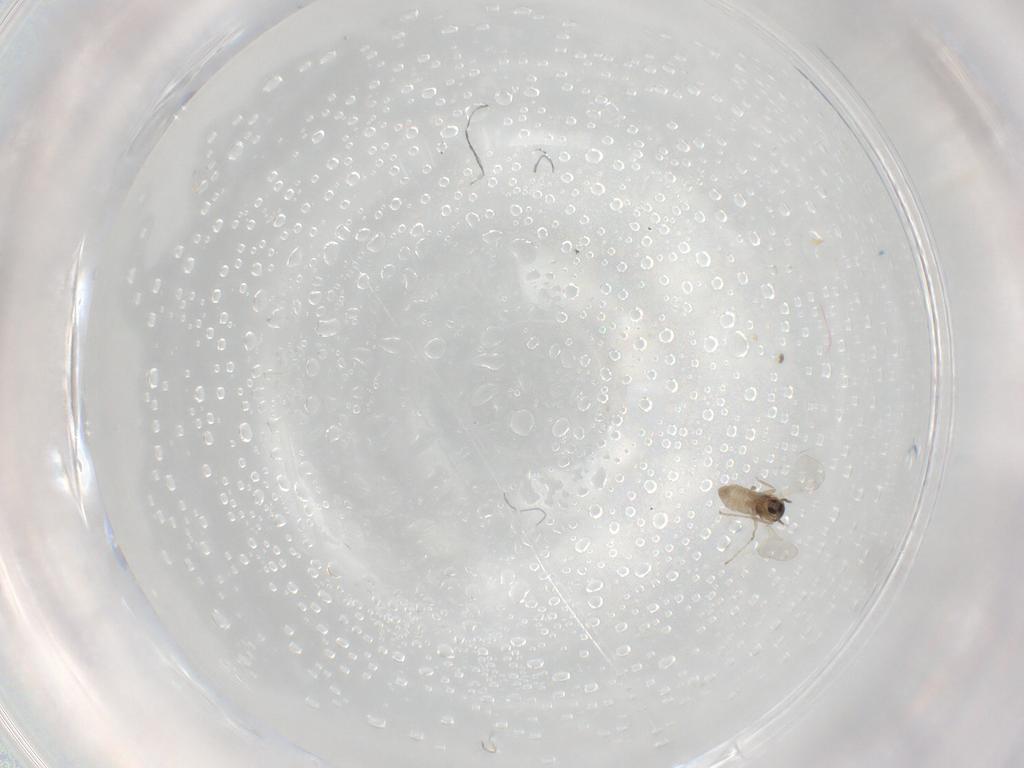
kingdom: Animalia
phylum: Arthropoda
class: Insecta
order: Diptera
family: Cecidomyiidae
